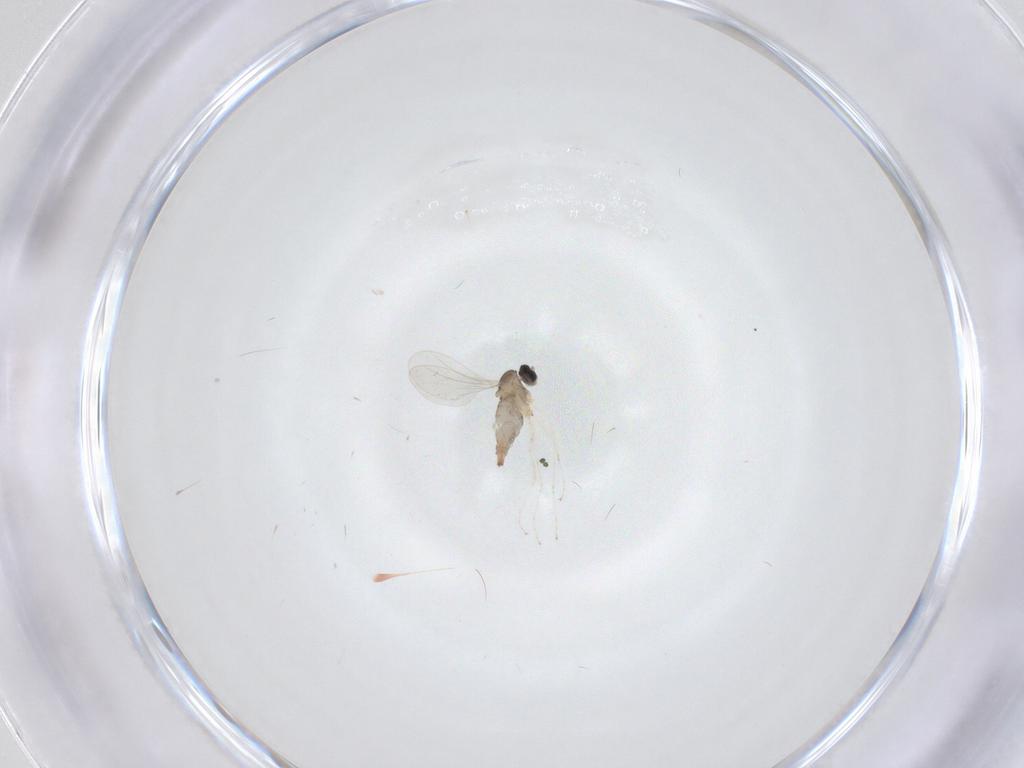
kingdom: Animalia
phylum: Arthropoda
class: Insecta
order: Diptera
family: Cecidomyiidae
